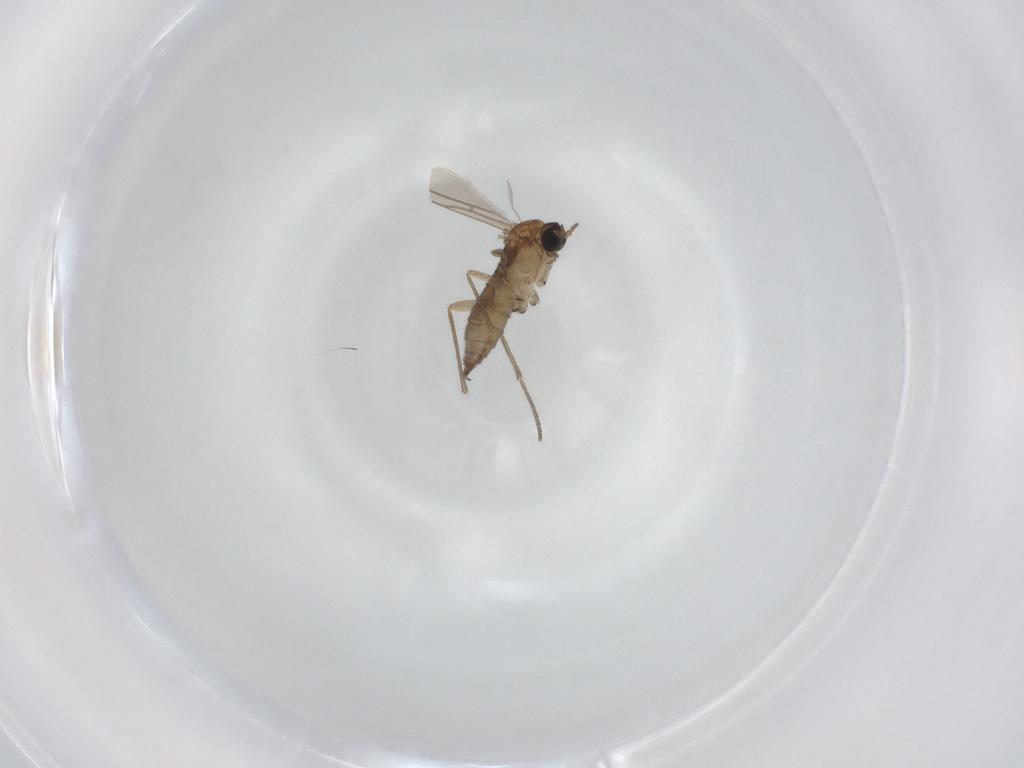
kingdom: Animalia
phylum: Arthropoda
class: Insecta
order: Diptera
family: Sciaridae
